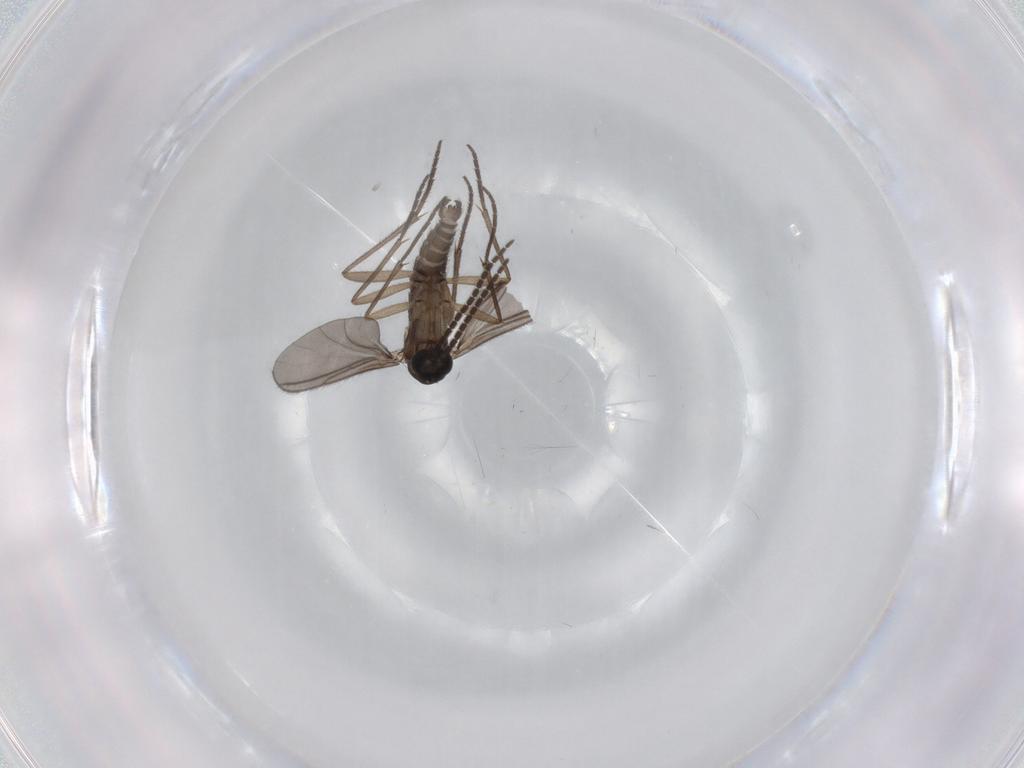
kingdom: Animalia
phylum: Arthropoda
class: Insecta
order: Diptera
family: Sciaridae
